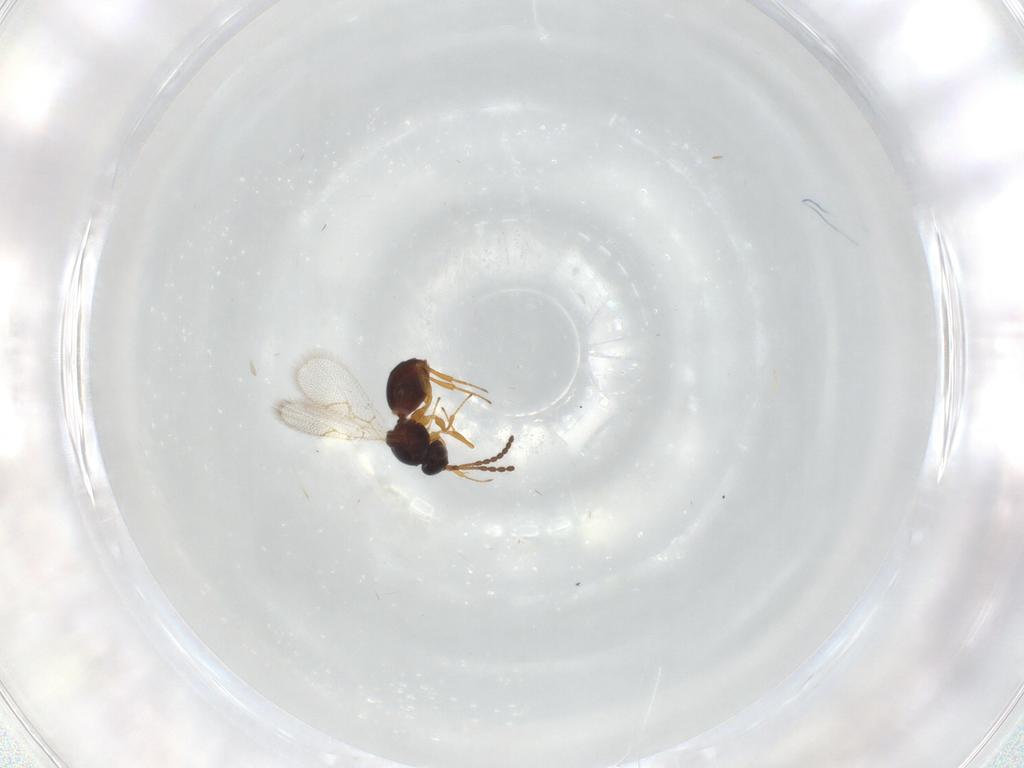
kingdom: Animalia
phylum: Arthropoda
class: Insecta
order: Hymenoptera
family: Figitidae
